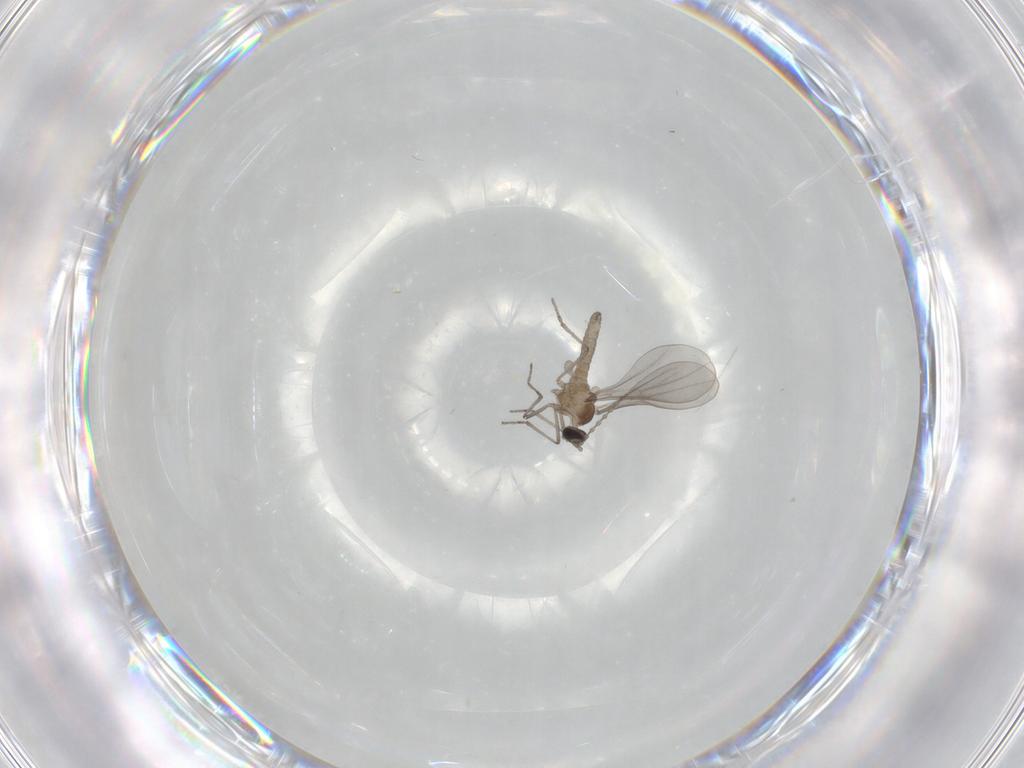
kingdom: Animalia
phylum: Arthropoda
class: Insecta
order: Diptera
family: Cecidomyiidae
